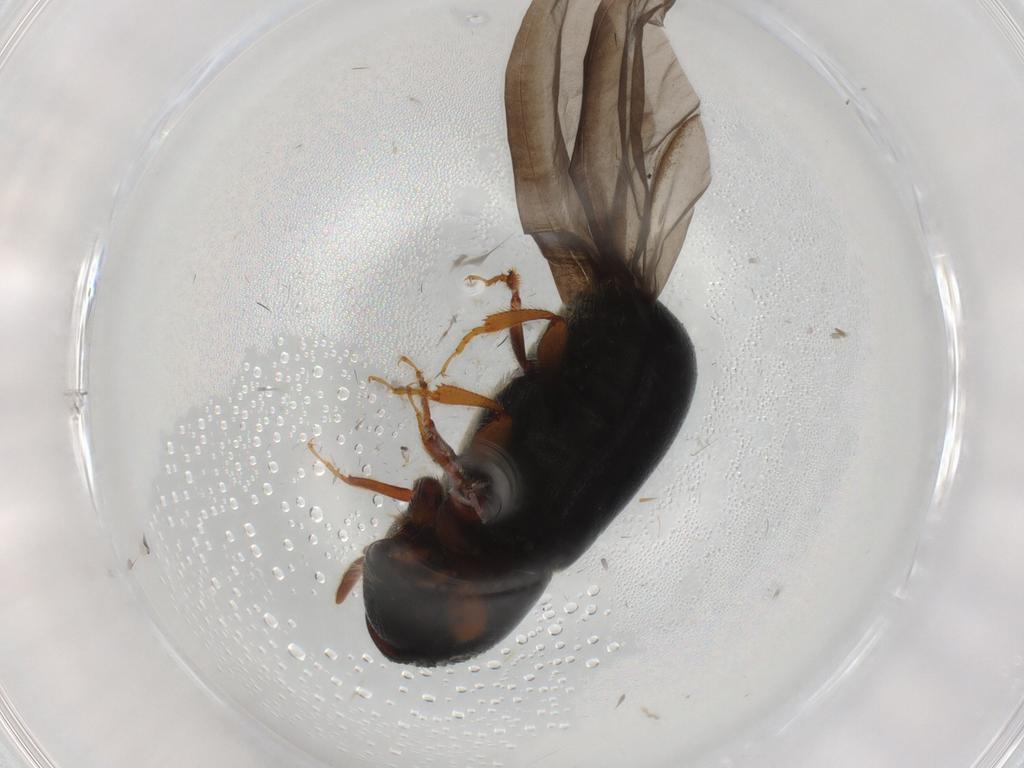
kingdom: Animalia
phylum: Arthropoda
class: Insecta
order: Coleoptera
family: Curculionidae
